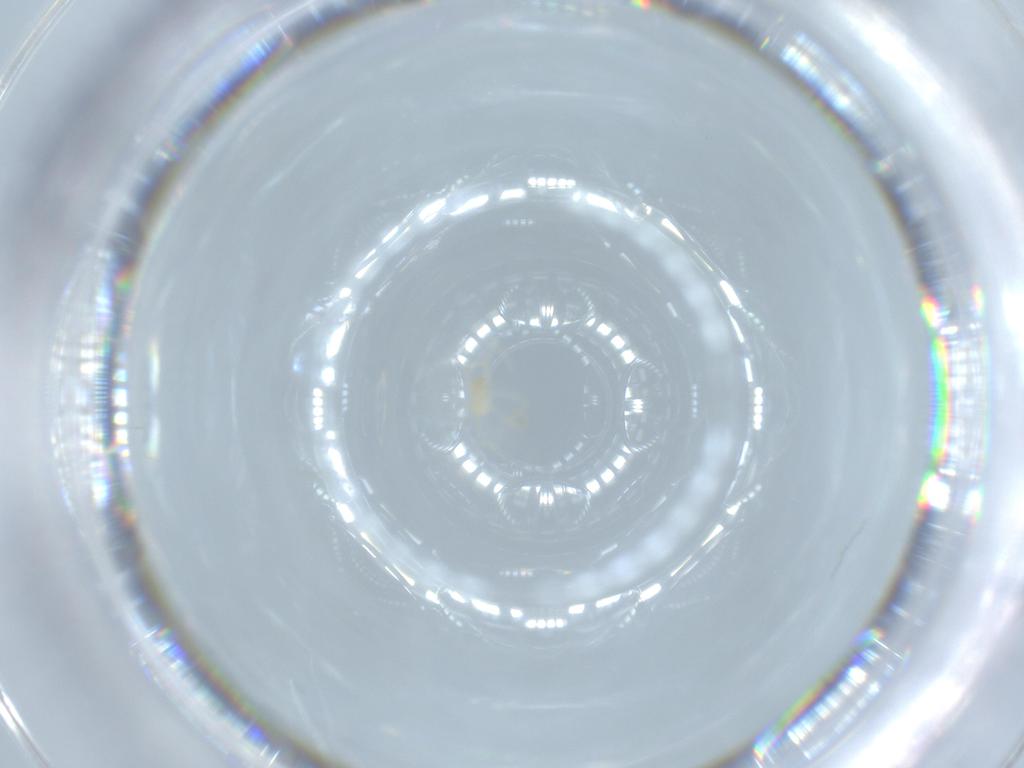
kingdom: Animalia
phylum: Arthropoda
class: Arachnida
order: Trombidiformes
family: Erythraeidae
